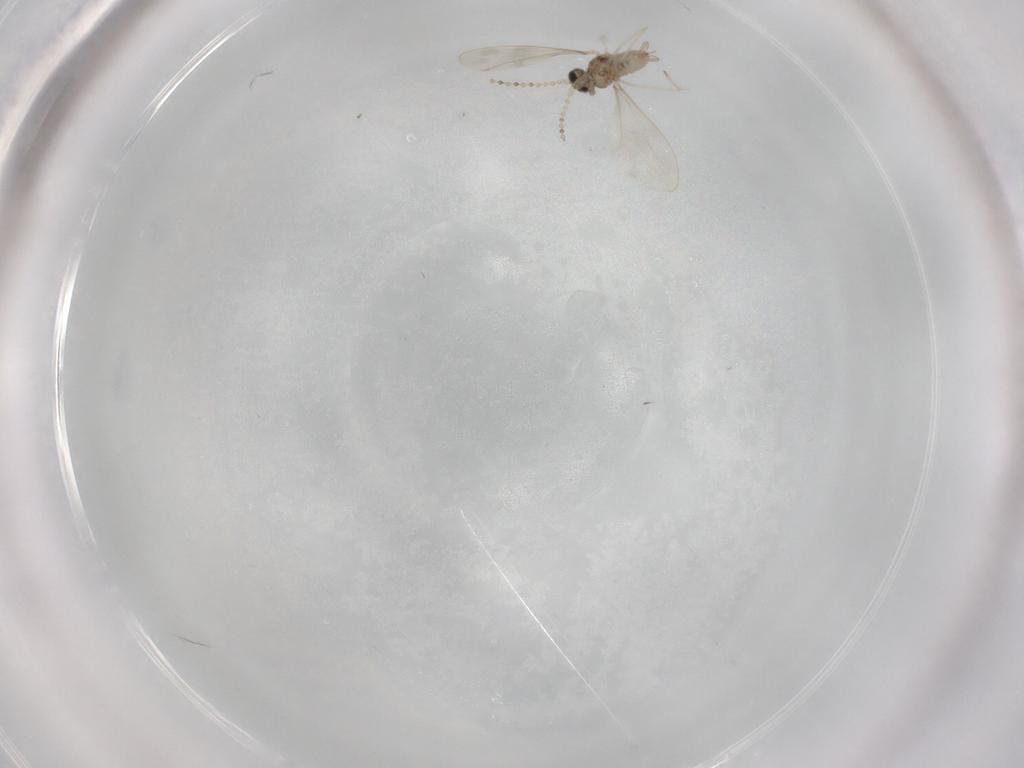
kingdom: Animalia
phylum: Arthropoda
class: Insecta
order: Diptera
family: Cecidomyiidae
